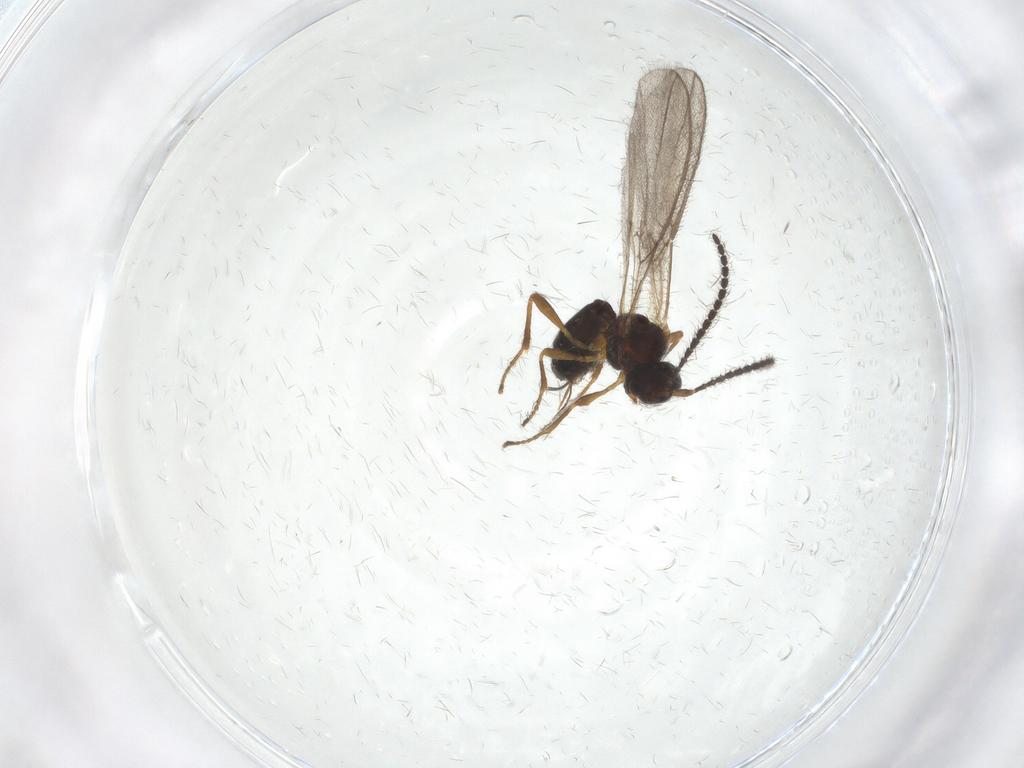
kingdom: Animalia
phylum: Arthropoda
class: Insecta
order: Hymenoptera
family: Braconidae
